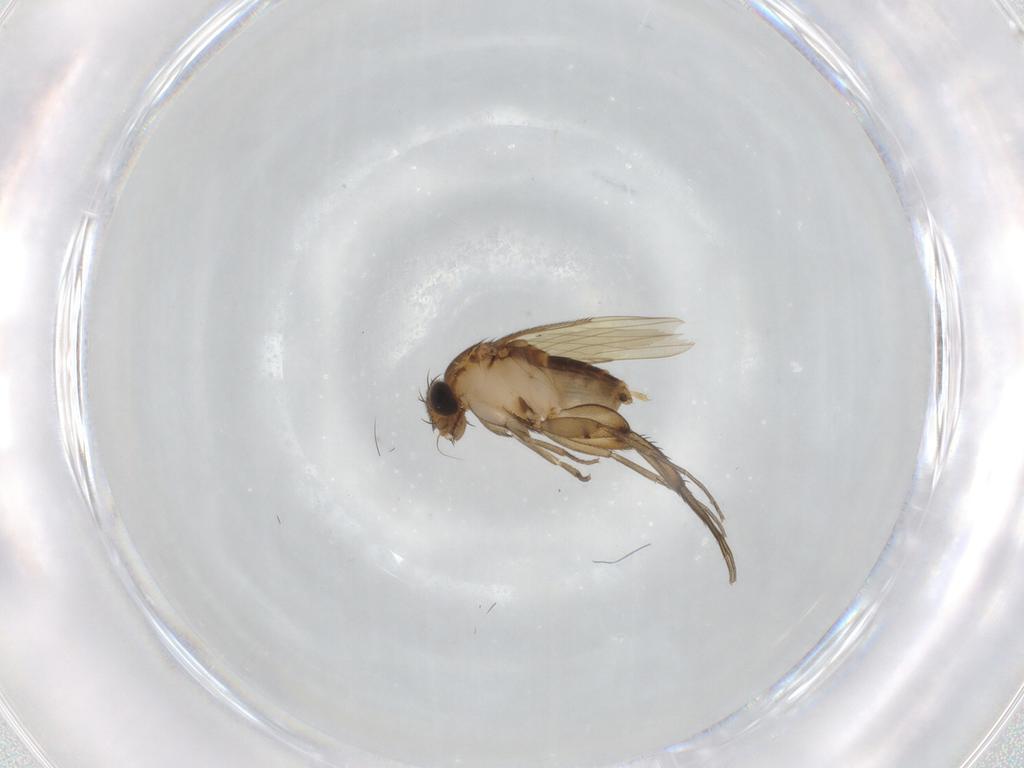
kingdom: Animalia
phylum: Arthropoda
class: Insecta
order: Diptera
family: Phoridae
